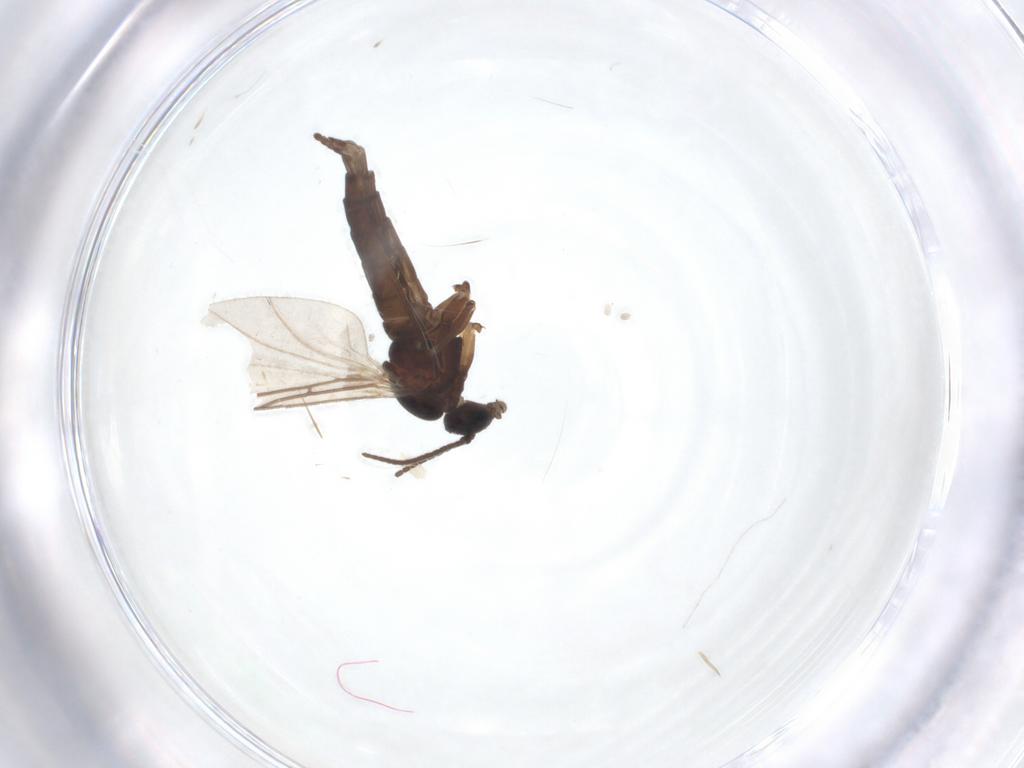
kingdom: Animalia
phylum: Arthropoda
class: Insecta
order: Diptera
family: Sciaridae
